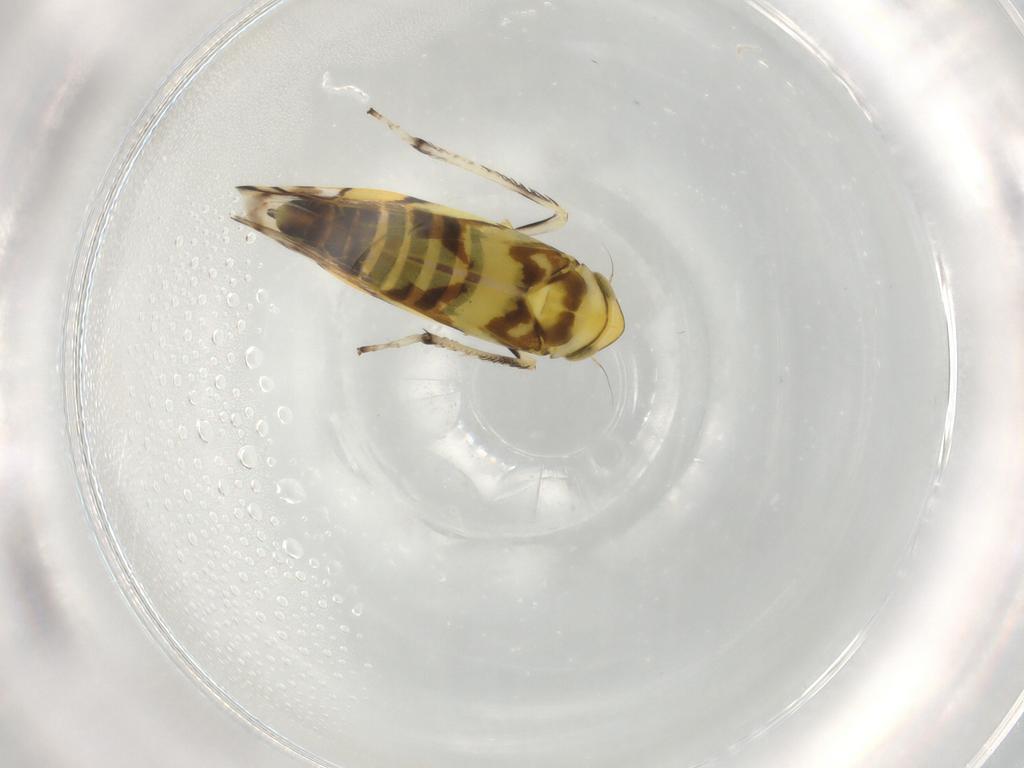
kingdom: Animalia
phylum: Arthropoda
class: Insecta
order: Hemiptera
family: Cicadellidae
